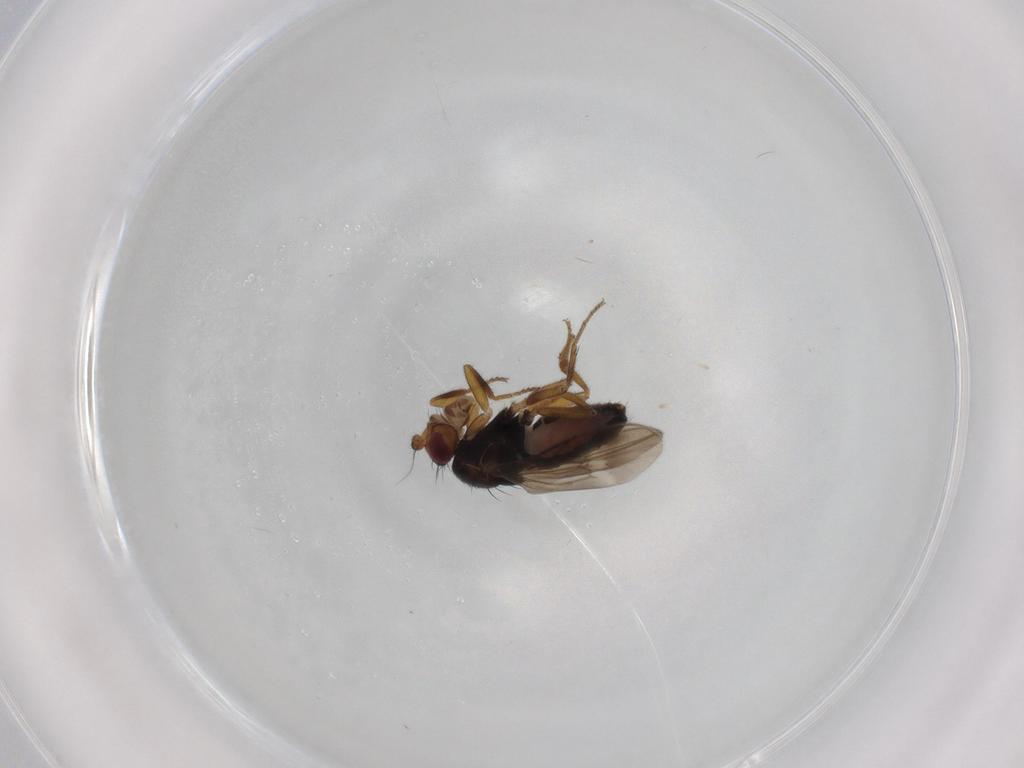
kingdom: Animalia
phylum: Arthropoda
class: Insecta
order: Diptera
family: Sphaeroceridae
